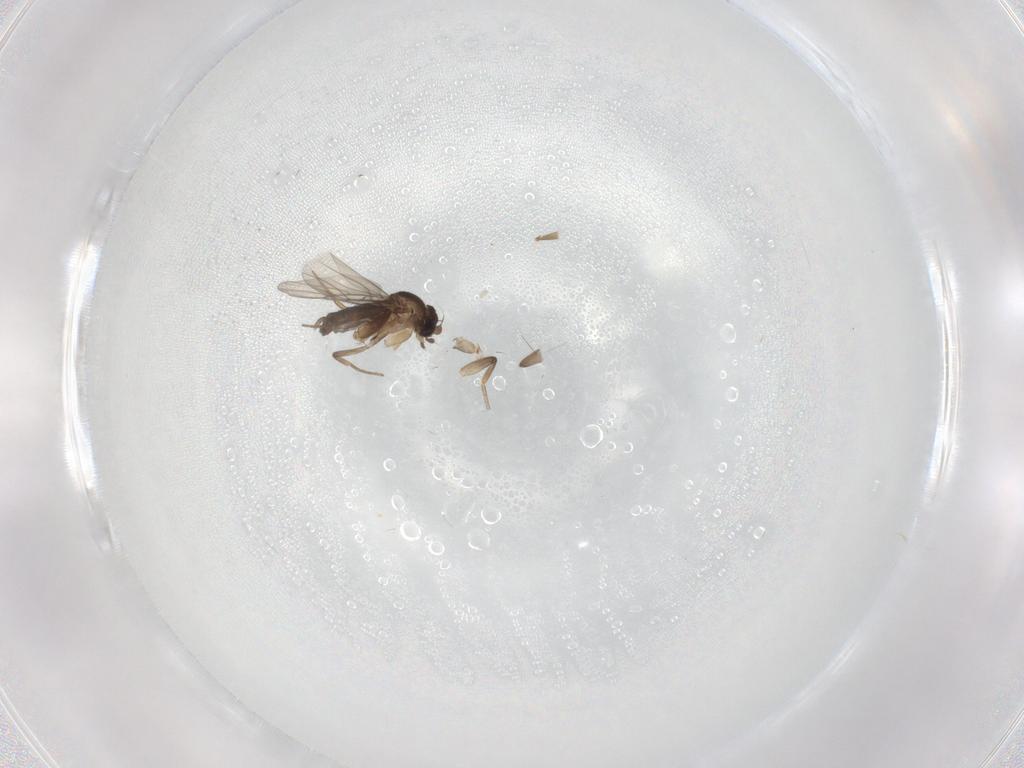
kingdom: Animalia
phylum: Arthropoda
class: Insecta
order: Diptera
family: Phoridae
